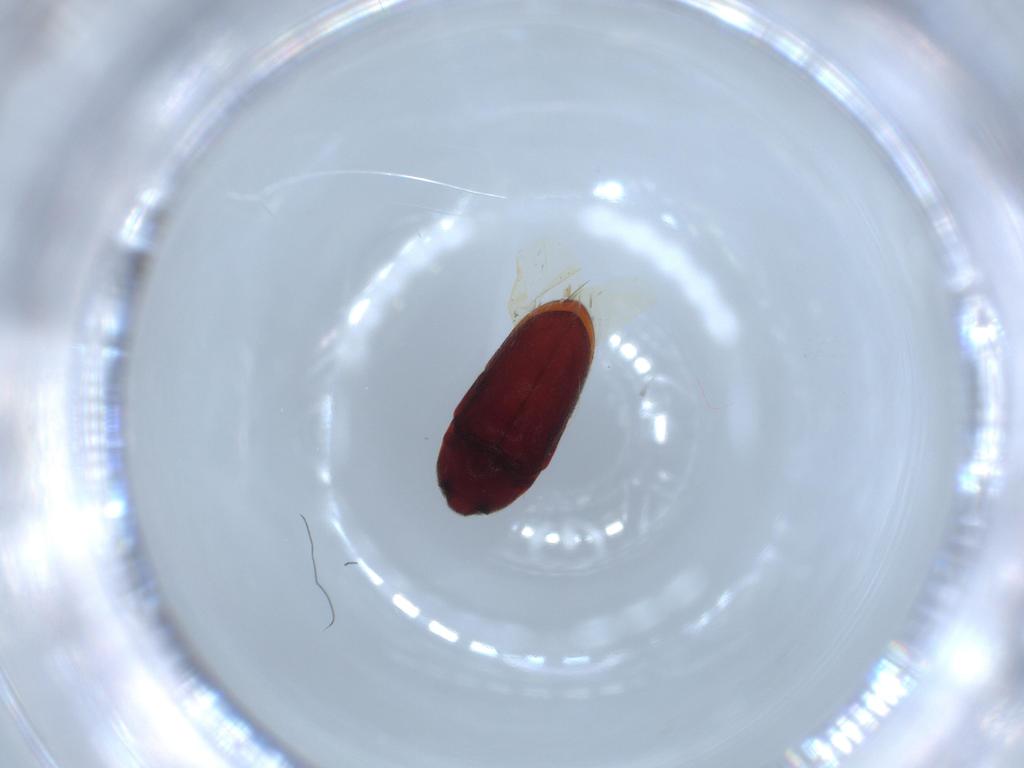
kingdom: Animalia
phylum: Arthropoda
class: Insecta
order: Coleoptera
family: Throscidae
